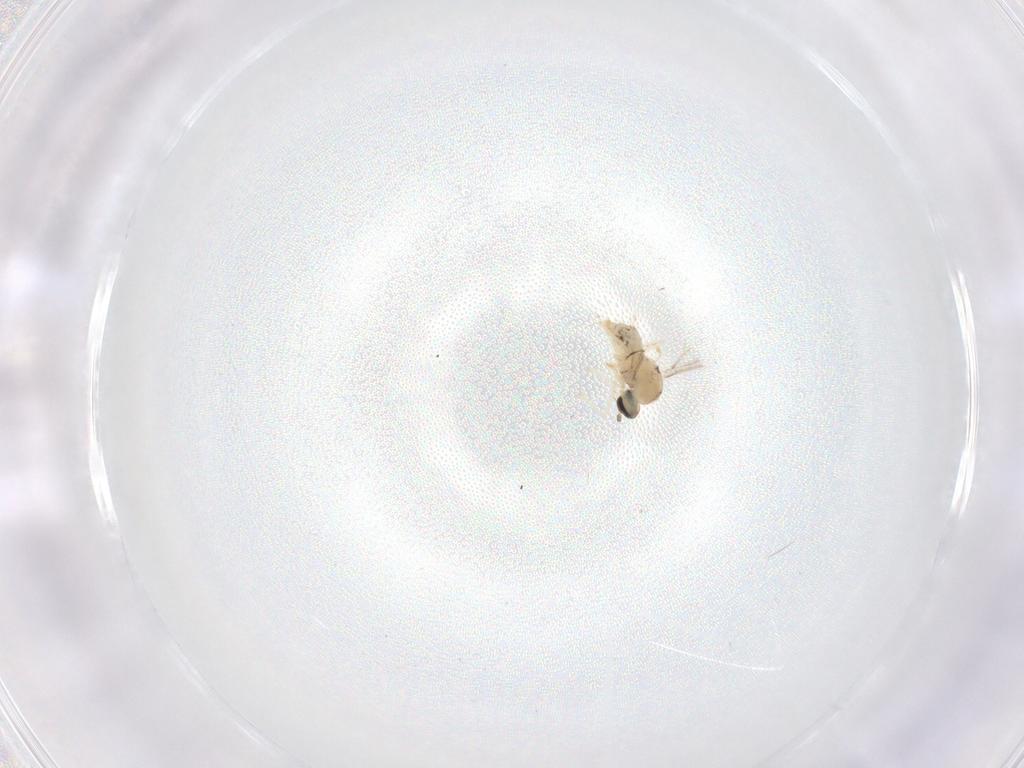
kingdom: Animalia
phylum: Arthropoda
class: Insecta
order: Diptera
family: Cecidomyiidae
